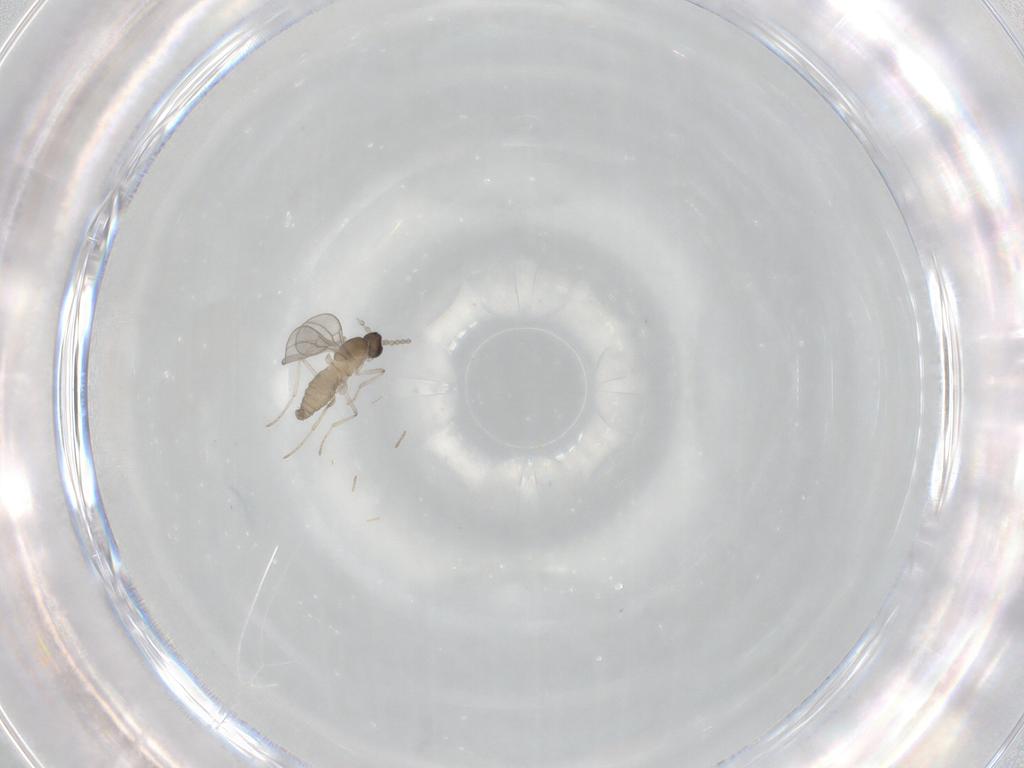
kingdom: Animalia
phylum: Arthropoda
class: Insecta
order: Diptera
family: Cecidomyiidae
